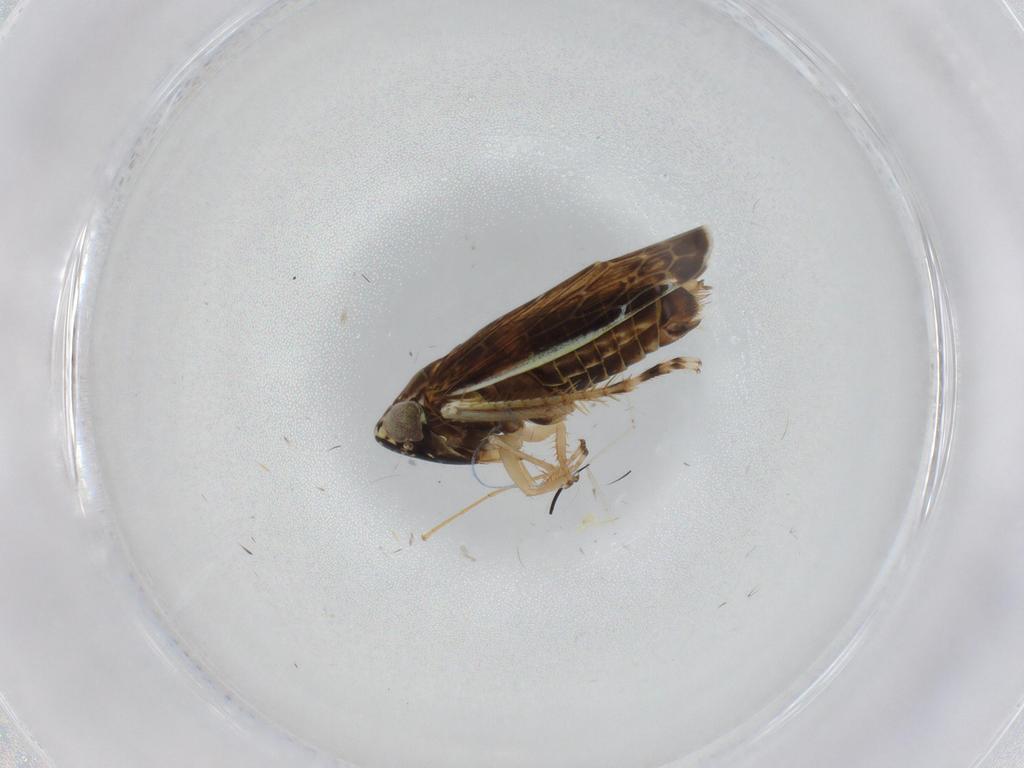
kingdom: Animalia
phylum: Arthropoda
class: Insecta
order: Hemiptera
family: Cicadellidae
